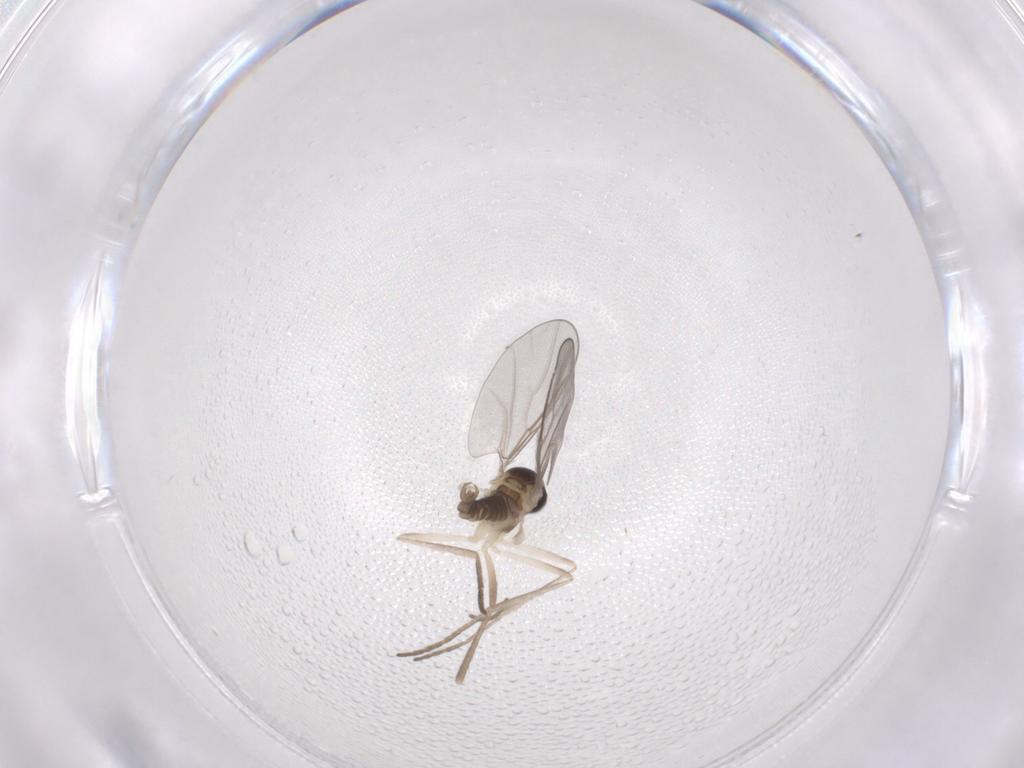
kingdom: Animalia
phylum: Arthropoda
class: Insecta
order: Diptera
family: Cecidomyiidae
